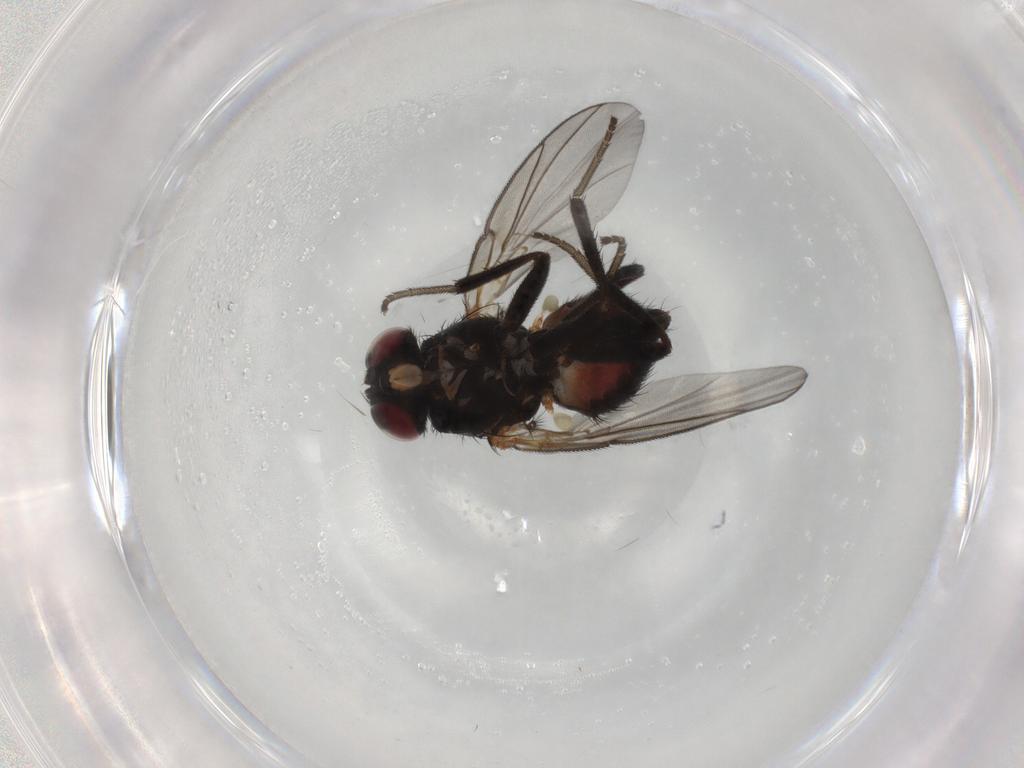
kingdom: Animalia
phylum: Arthropoda
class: Insecta
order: Diptera
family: Agromyzidae
